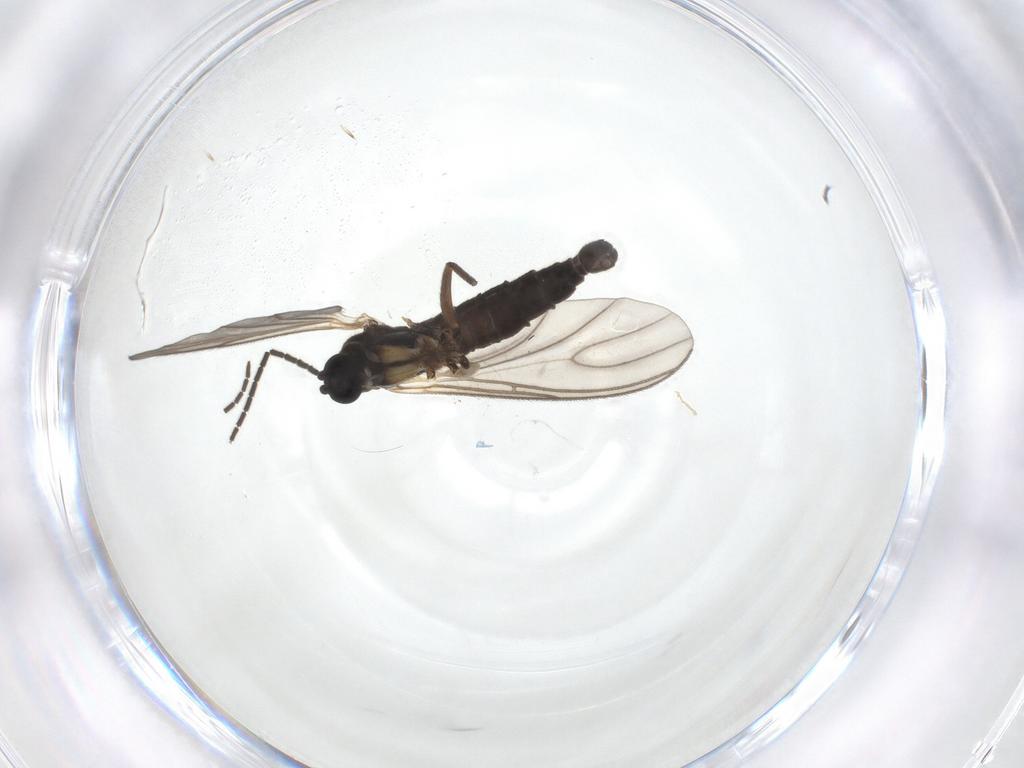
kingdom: Animalia
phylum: Arthropoda
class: Insecta
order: Diptera
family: Sciaridae
